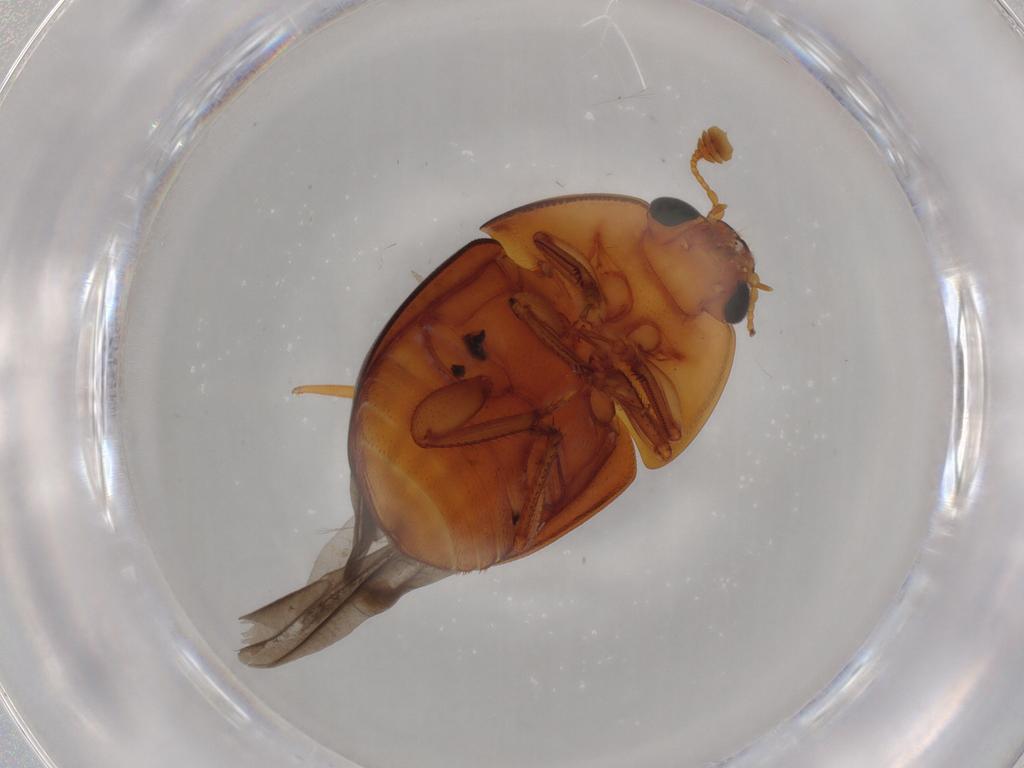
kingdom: Animalia
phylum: Arthropoda
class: Insecta
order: Coleoptera
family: Nitidulidae
